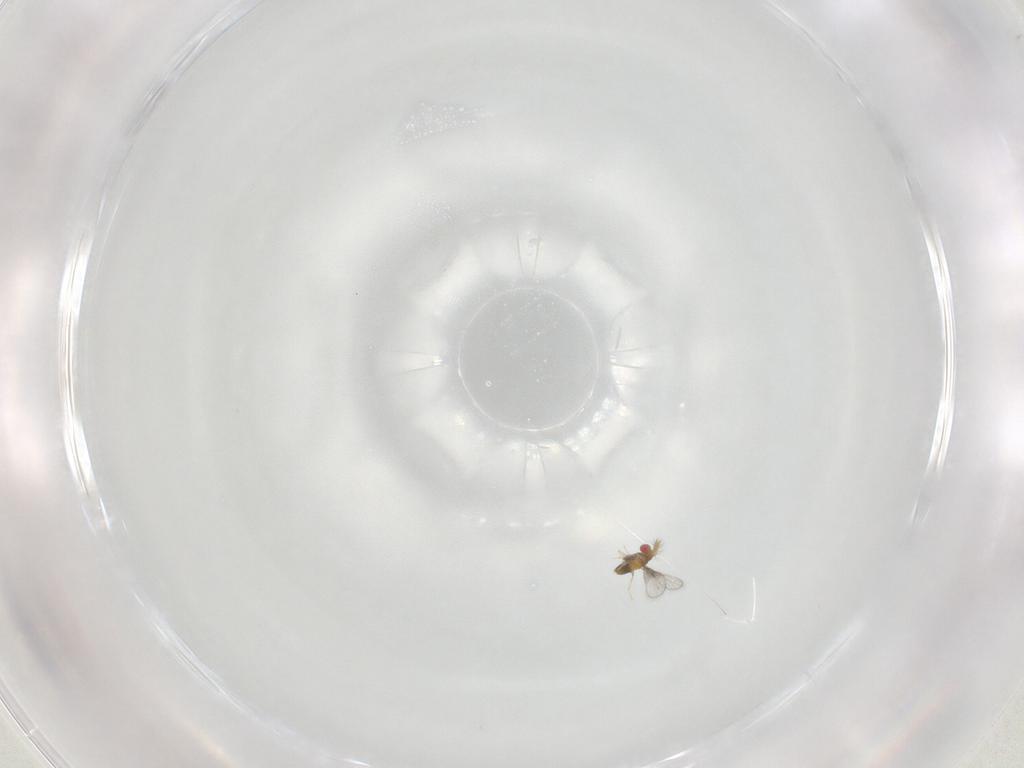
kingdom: Animalia
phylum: Arthropoda
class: Insecta
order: Hymenoptera
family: Trichogrammatidae
